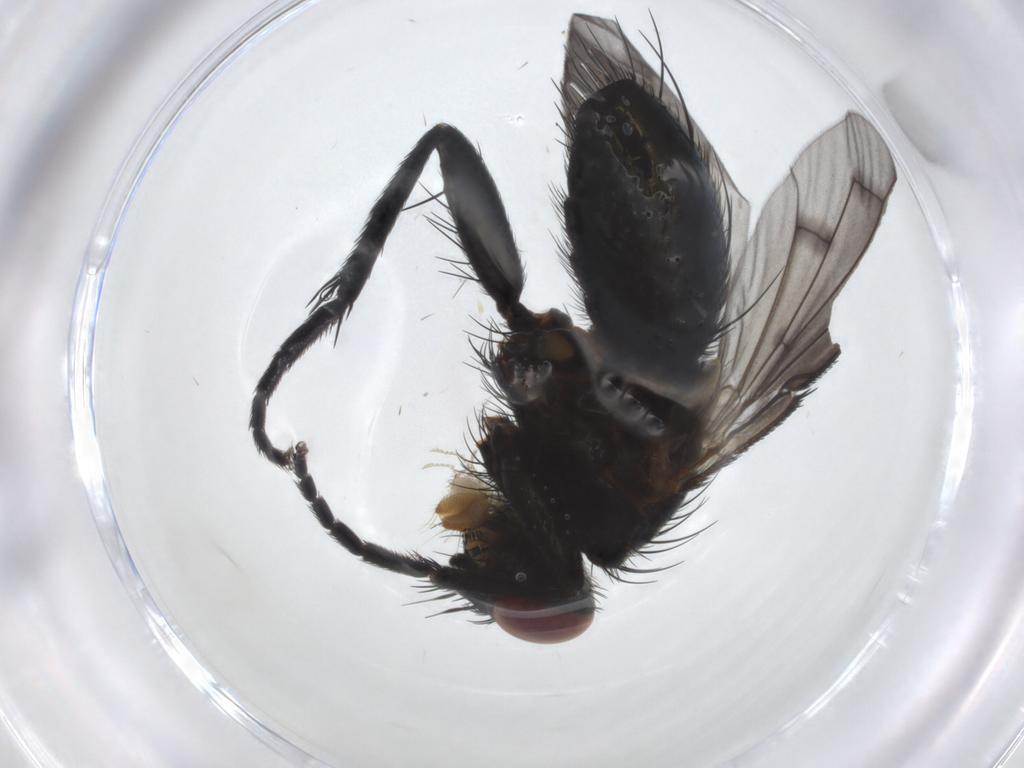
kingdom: Animalia
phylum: Arthropoda
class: Insecta
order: Diptera
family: Tachinidae
